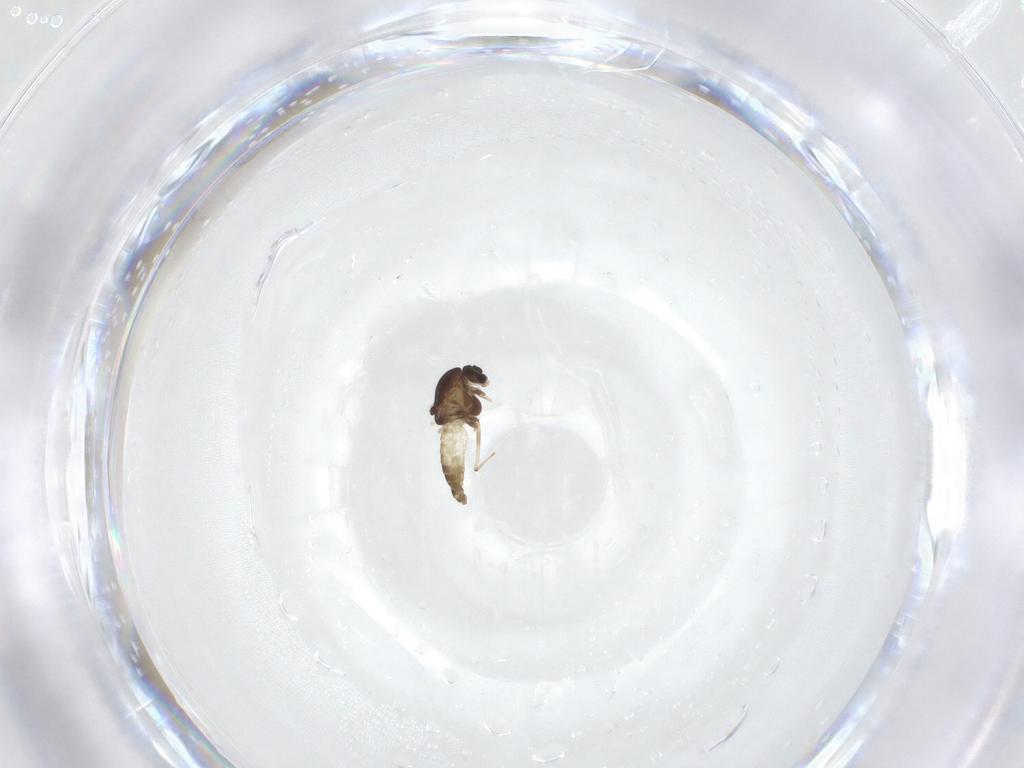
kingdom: Animalia
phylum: Arthropoda
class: Insecta
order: Diptera
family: Chironomidae
